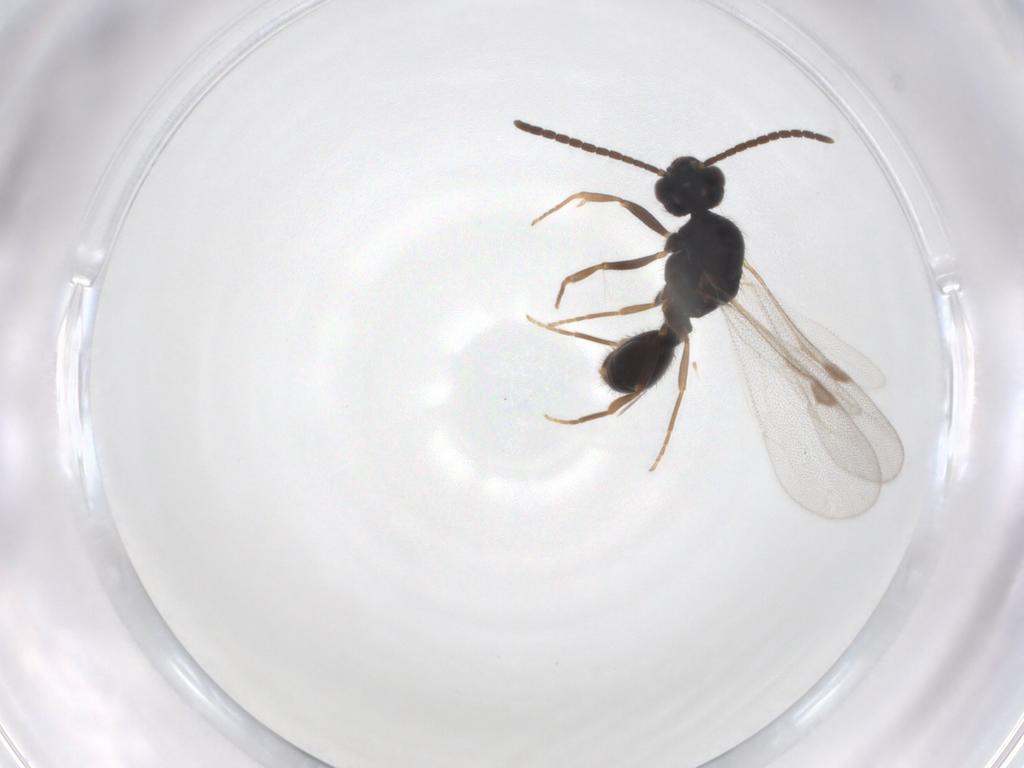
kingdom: Animalia
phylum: Arthropoda
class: Insecta
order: Hymenoptera
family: Formicidae
